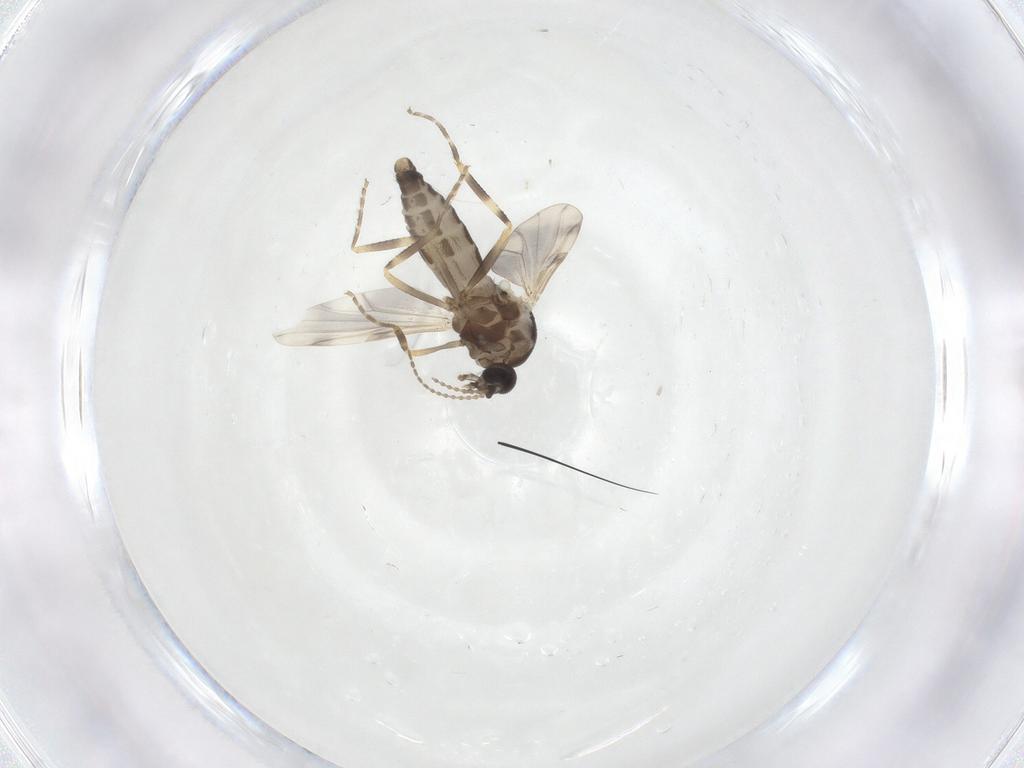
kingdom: Animalia
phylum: Arthropoda
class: Insecta
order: Diptera
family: Ceratopogonidae
